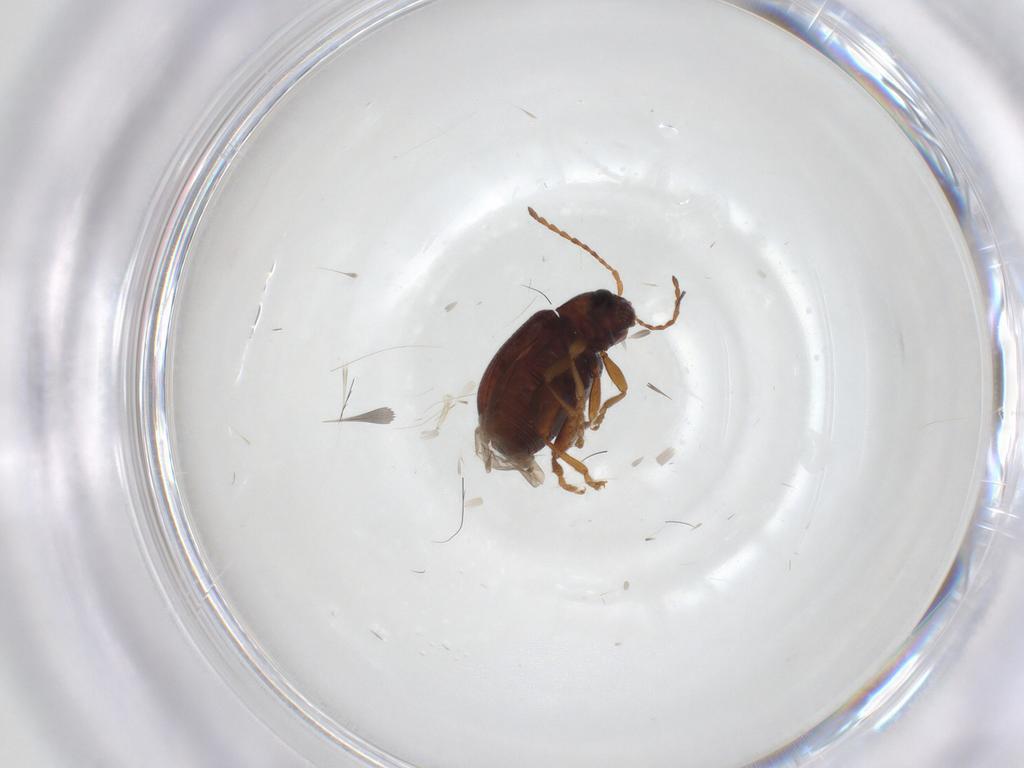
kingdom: Animalia
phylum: Arthropoda
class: Insecta
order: Coleoptera
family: Chrysomelidae
